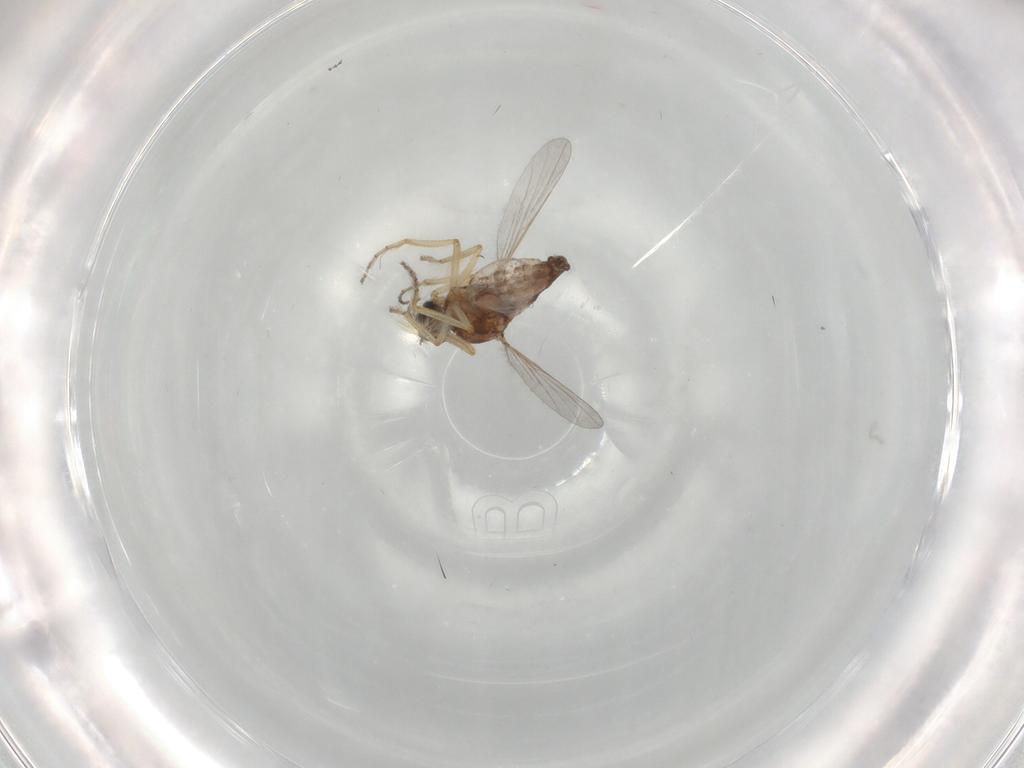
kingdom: Animalia
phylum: Arthropoda
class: Insecta
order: Diptera
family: Ceratopogonidae
